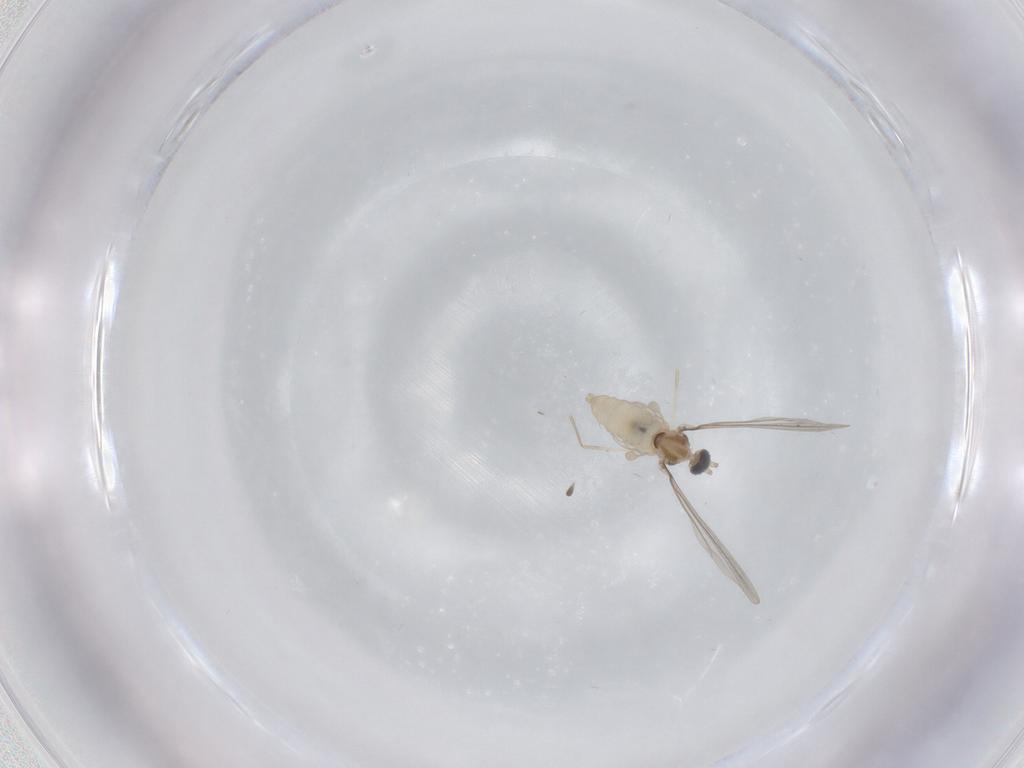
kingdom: Animalia
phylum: Arthropoda
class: Insecta
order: Diptera
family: Cecidomyiidae
